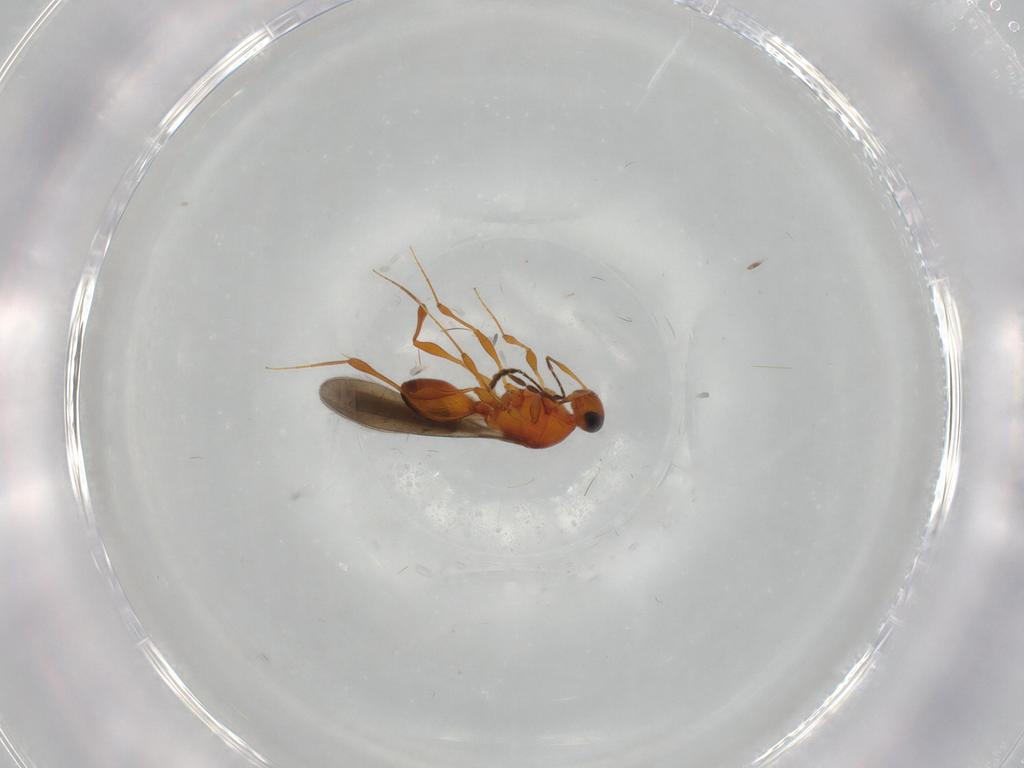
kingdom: Animalia
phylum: Arthropoda
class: Insecta
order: Hymenoptera
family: Platygastridae
